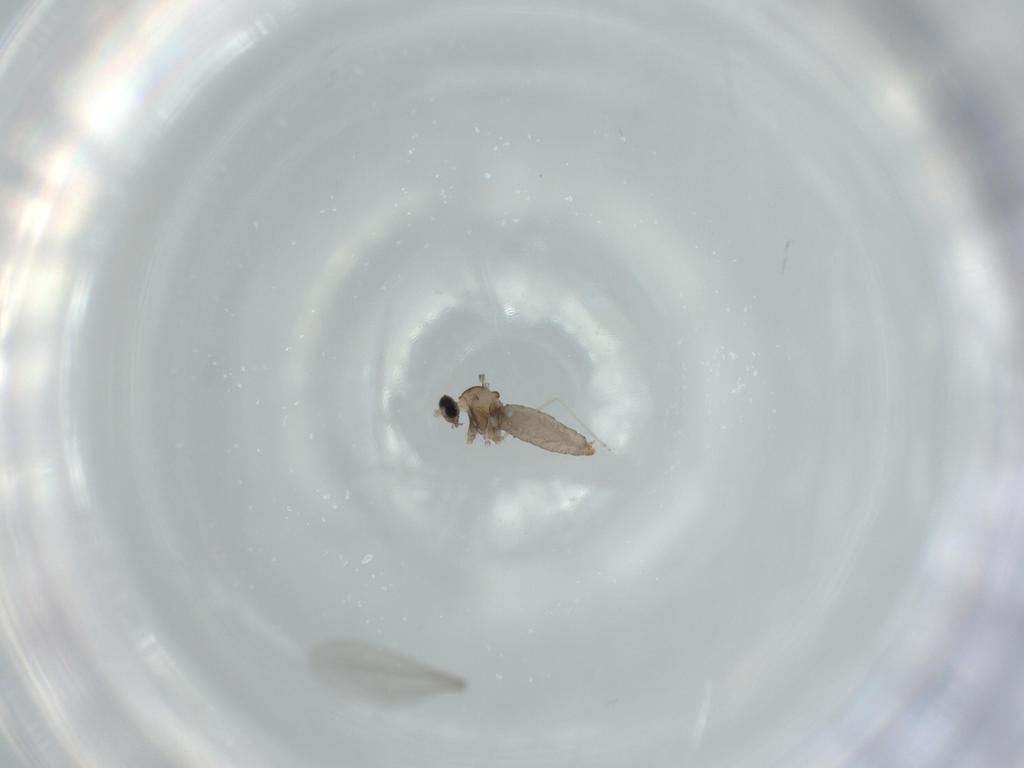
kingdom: Animalia
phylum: Arthropoda
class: Insecta
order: Diptera
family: Cecidomyiidae
